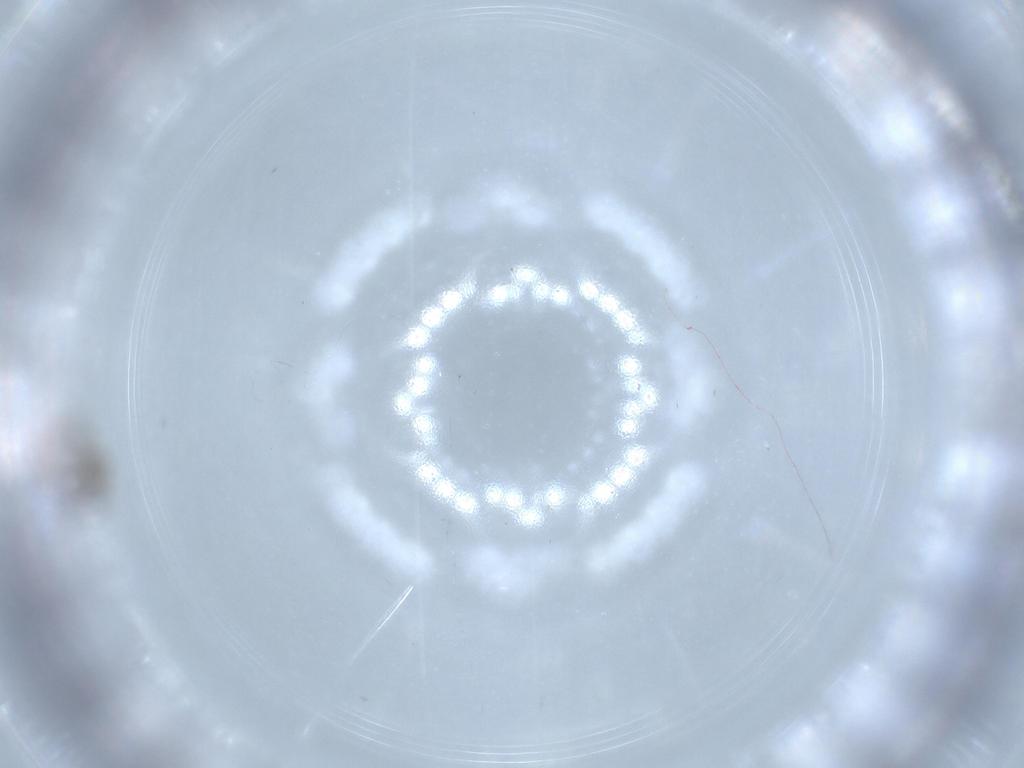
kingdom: Animalia
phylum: Arthropoda
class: Insecta
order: Diptera
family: Cecidomyiidae
